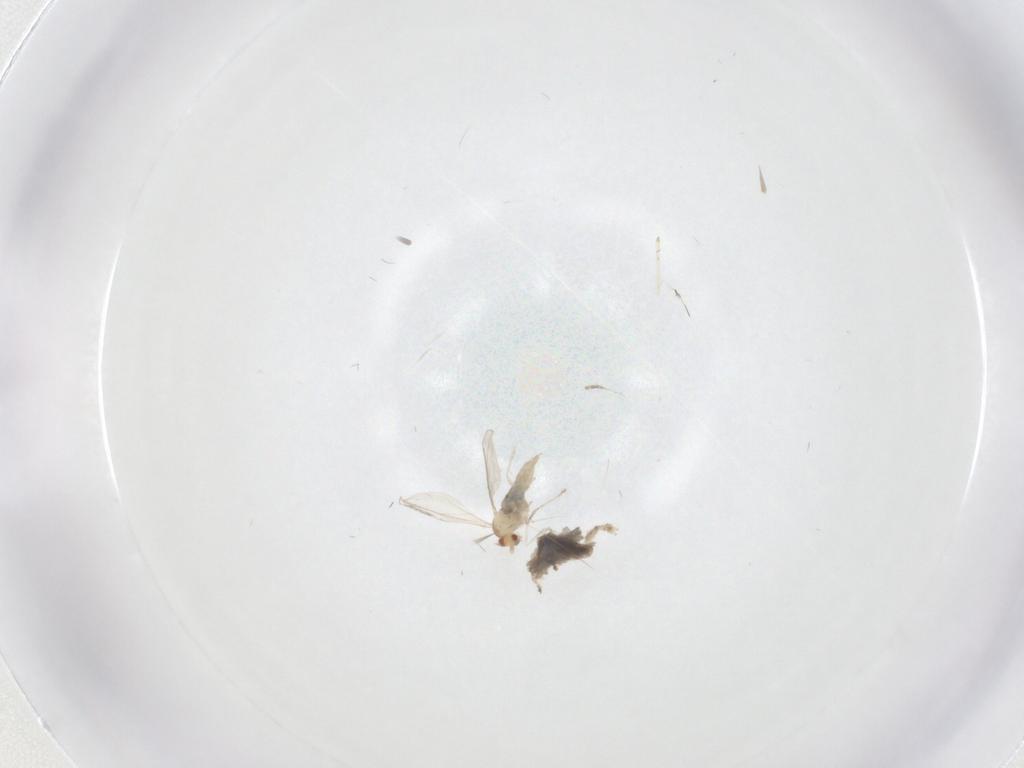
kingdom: Animalia
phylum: Arthropoda
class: Insecta
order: Diptera
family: Cecidomyiidae
